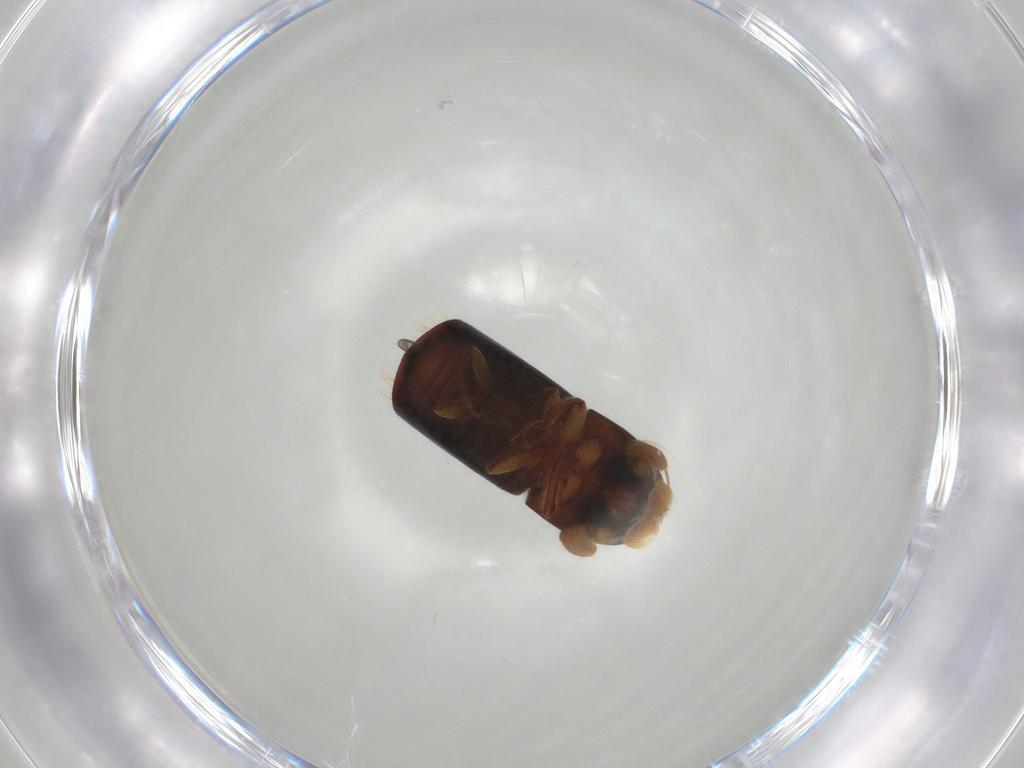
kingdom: Animalia
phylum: Arthropoda
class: Insecta
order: Coleoptera
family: Curculionidae
